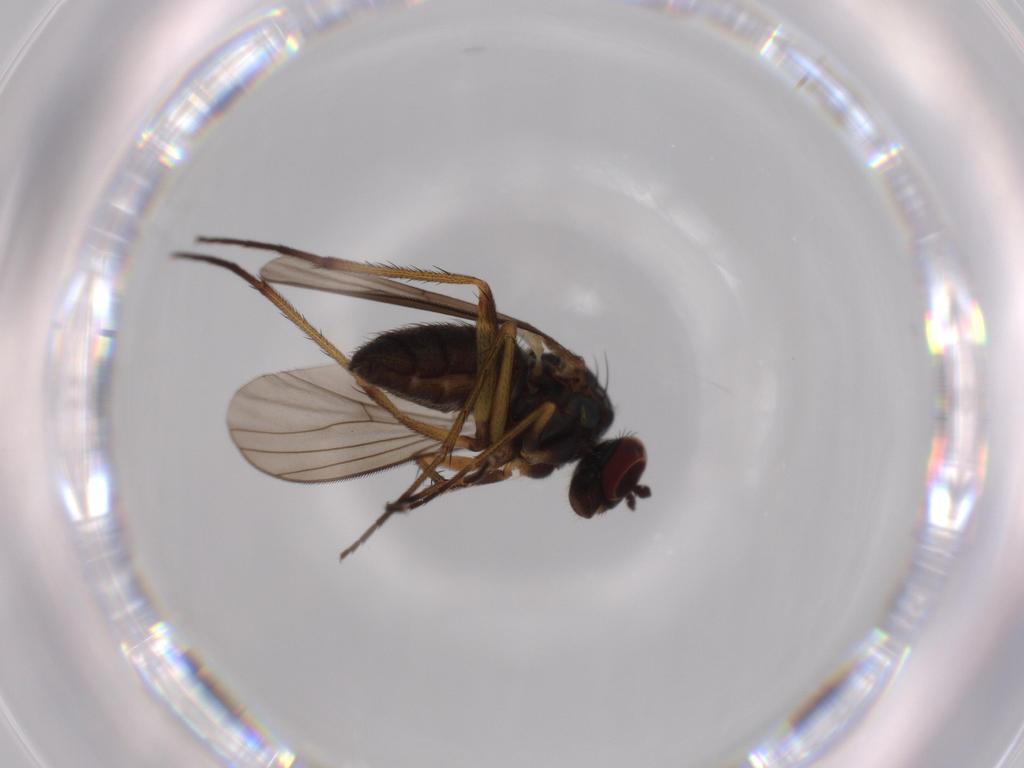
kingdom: Animalia
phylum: Arthropoda
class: Insecta
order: Diptera
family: Dolichopodidae
